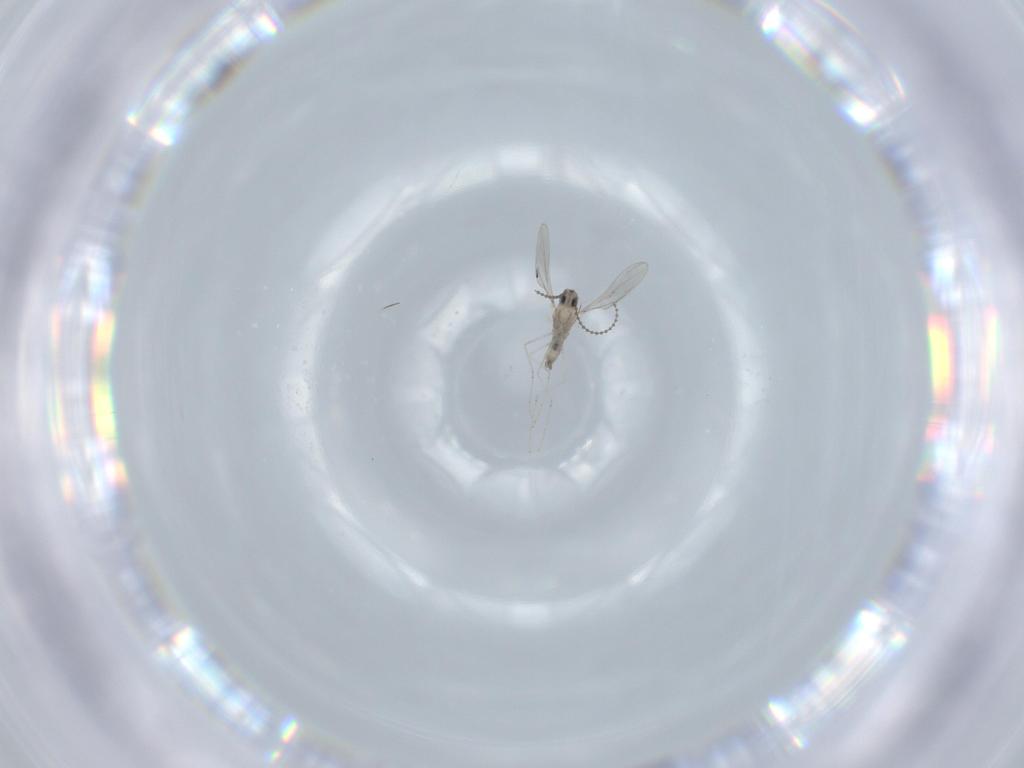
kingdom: Animalia
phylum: Arthropoda
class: Insecta
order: Diptera
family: Cecidomyiidae
